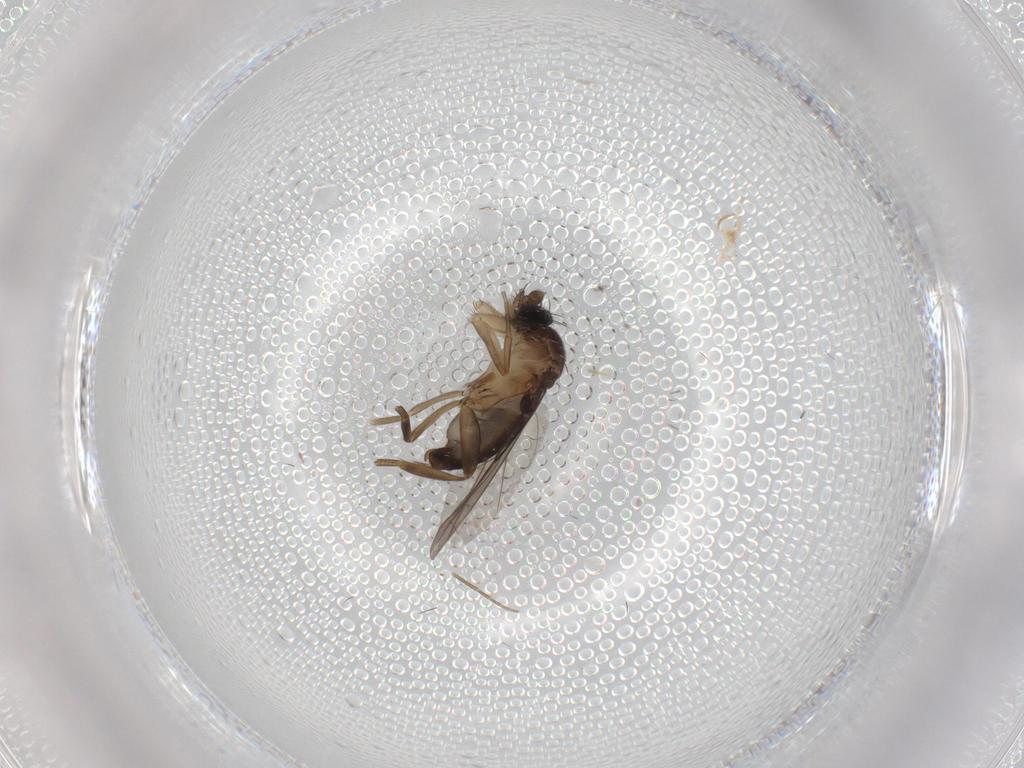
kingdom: Animalia
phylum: Arthropoda
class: Insecta
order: Diptera
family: Phoridae
